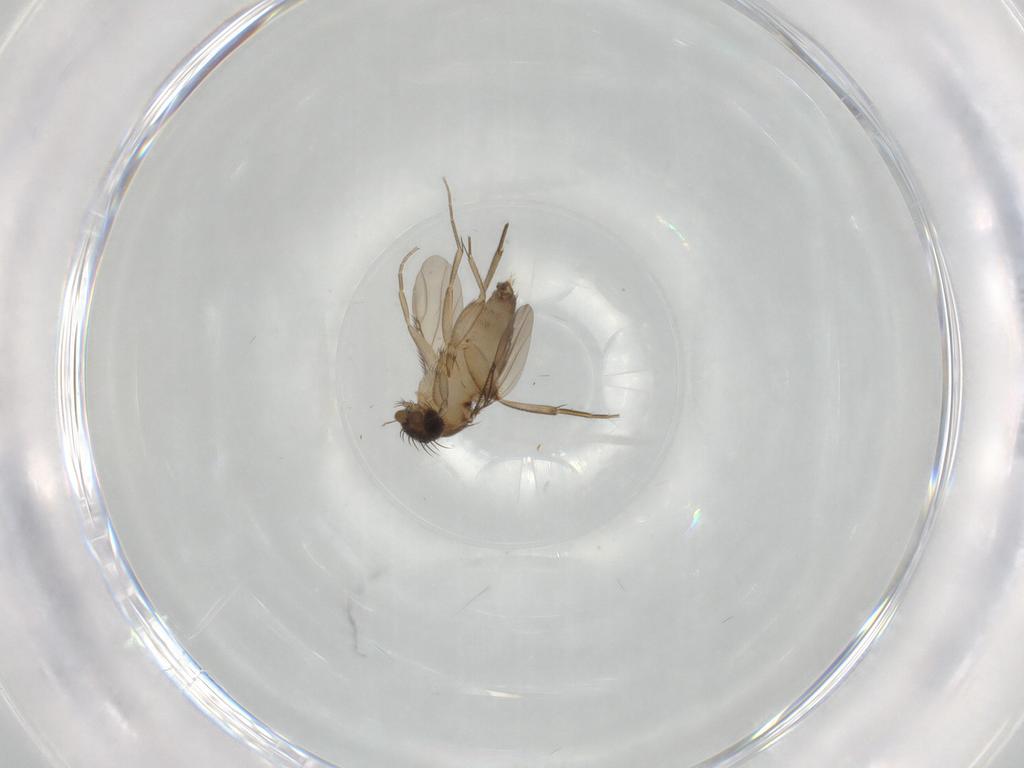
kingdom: Animalia
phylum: Arthropoda
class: Insecta
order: Diptera
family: Phoridae
